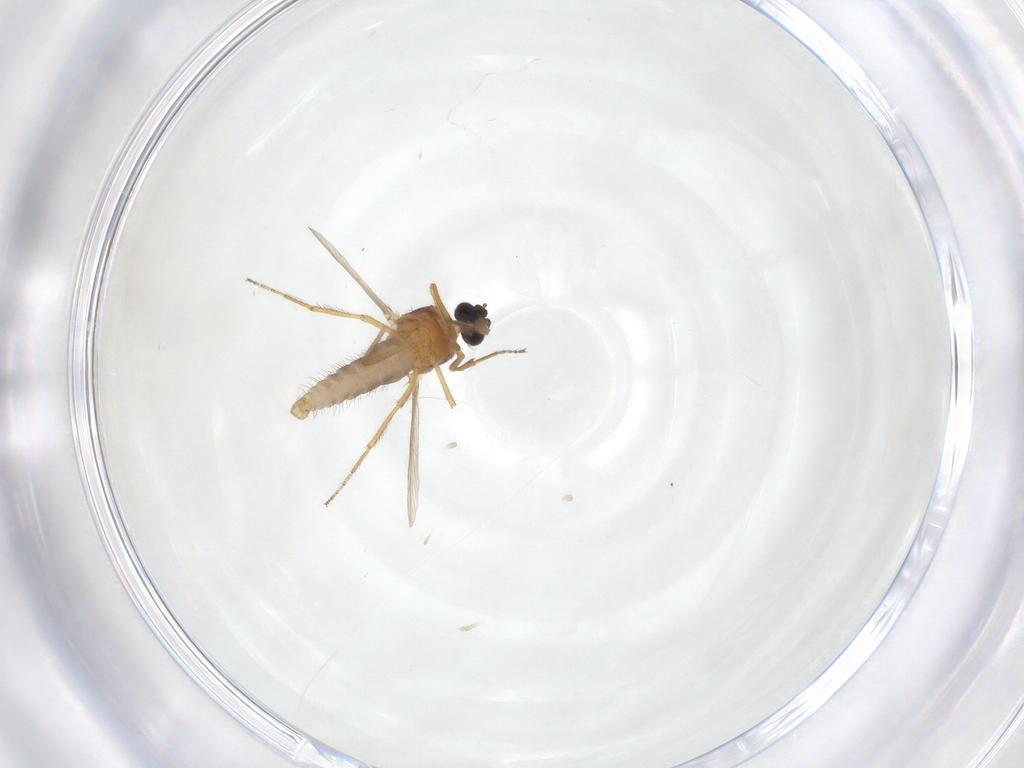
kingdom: Animalia
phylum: Arthropoda
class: Insecta
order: Diptera
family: Ceratopogonidae
